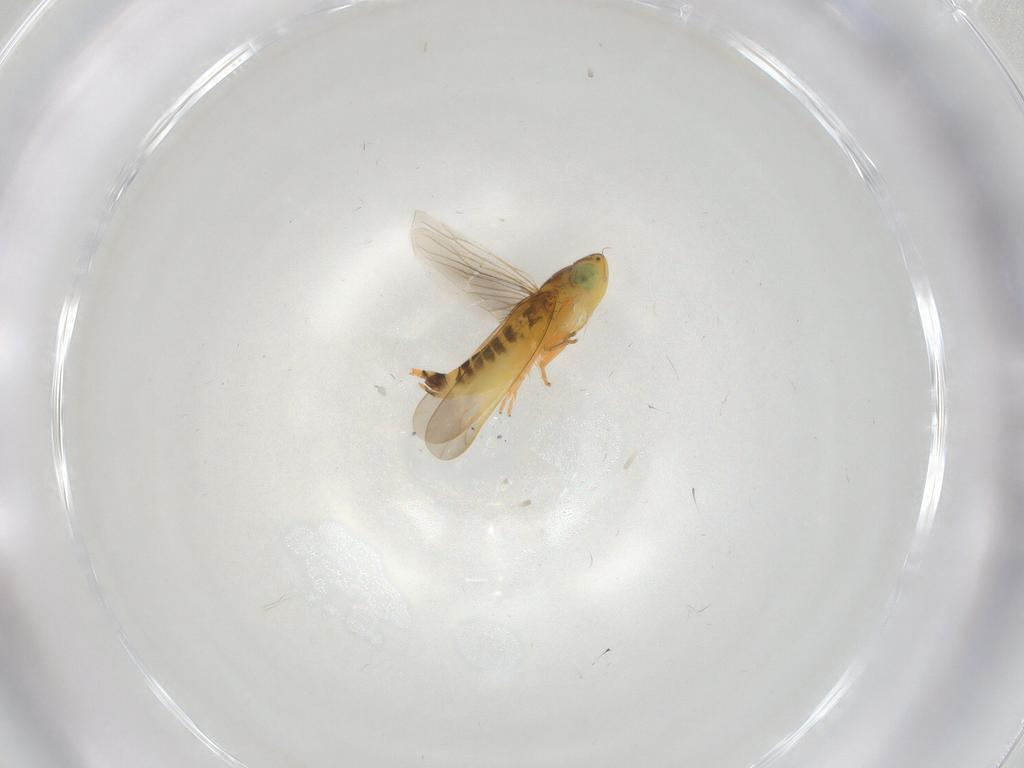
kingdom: Animalia
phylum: Arthropoda
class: Insecta
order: Hemiptera
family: Cicadellidae
